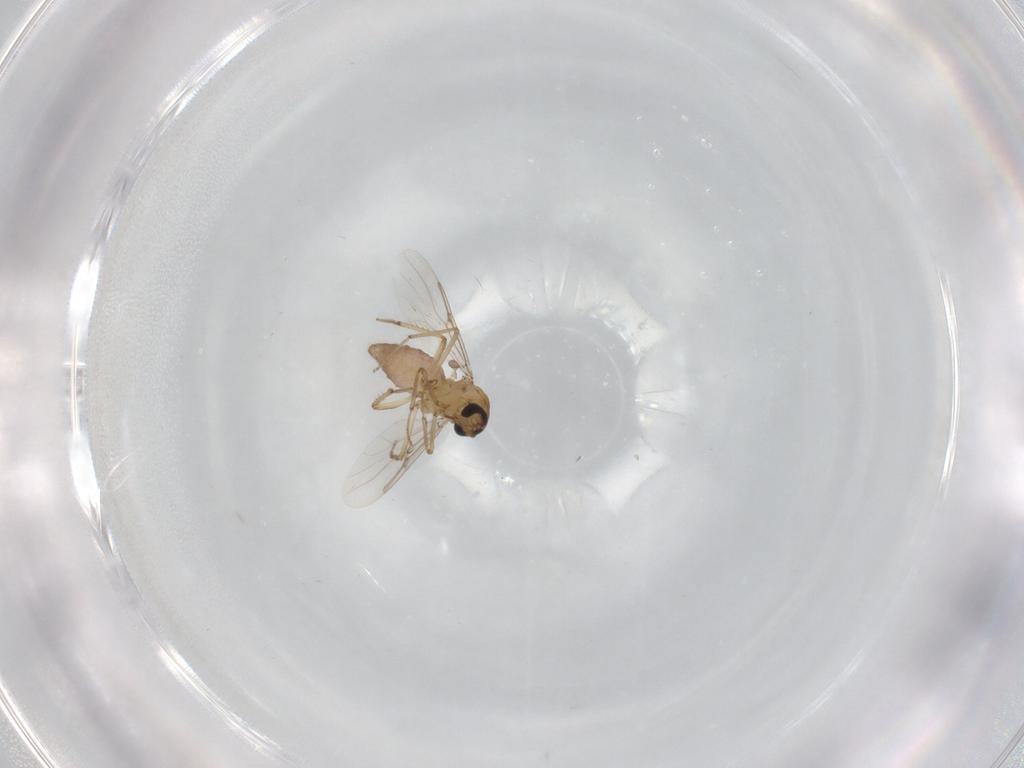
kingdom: Animalia
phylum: Arthropoda
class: Insecta
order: Diptera
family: Ceratopogonidae
